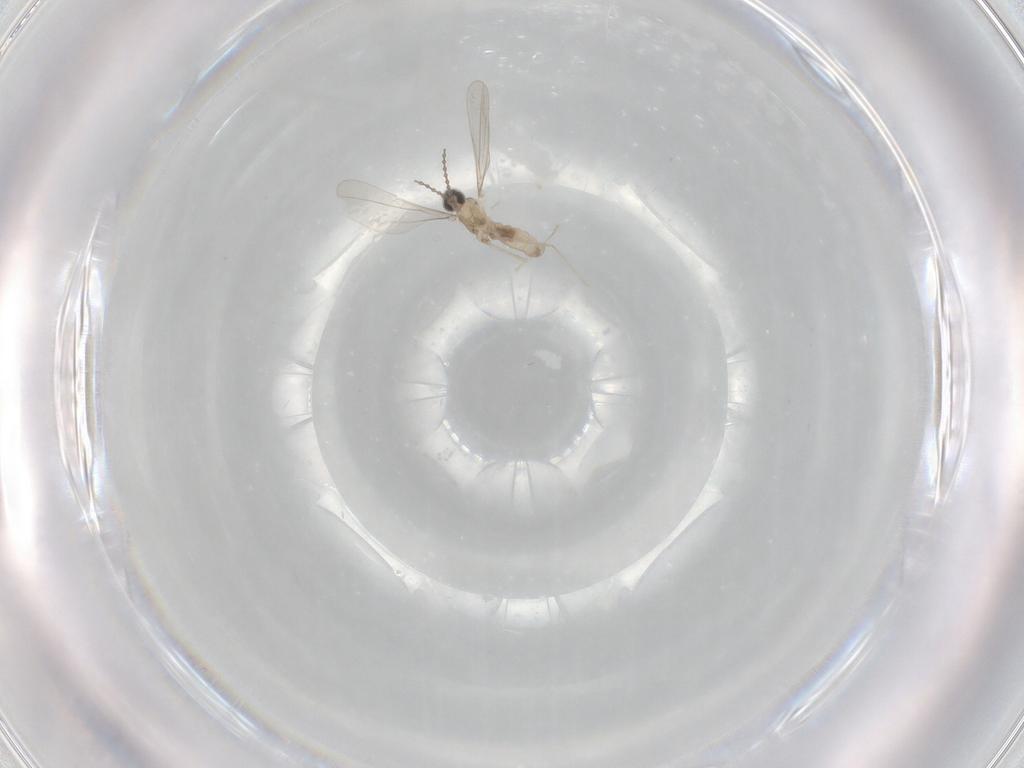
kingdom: Animalia
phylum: Arthropoda
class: Insecta
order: Diptera
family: Cecidomyiidae
